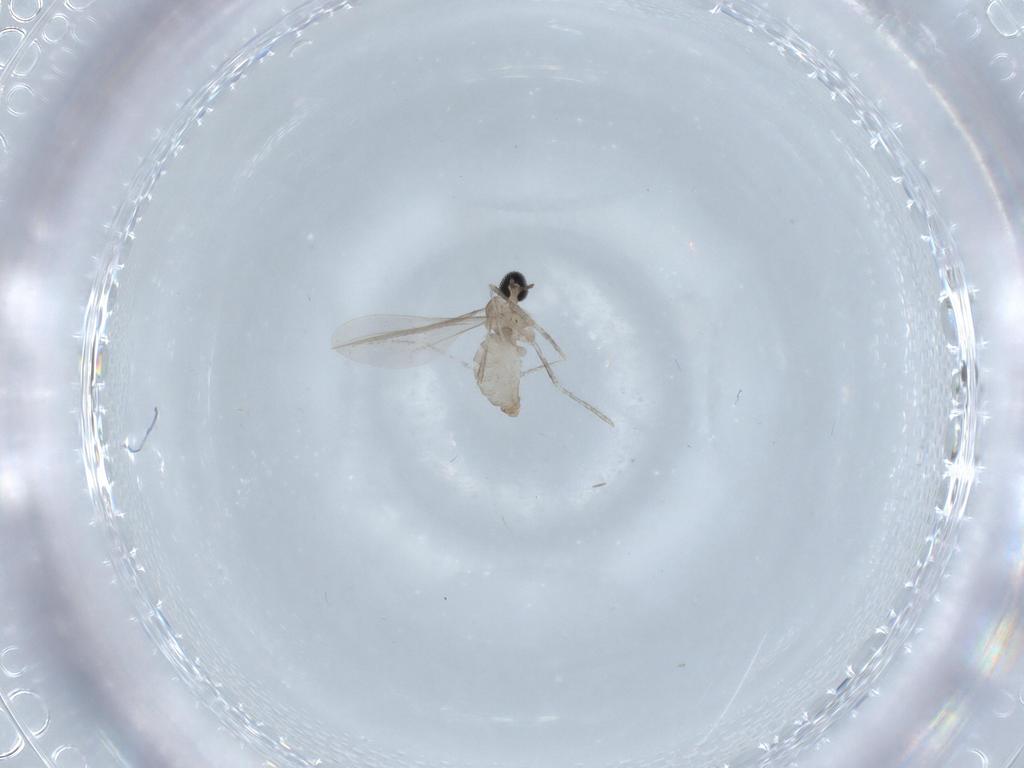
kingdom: Animalia
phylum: Arthropoda
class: Insecta
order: Diptera
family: Cecidomyiidae
